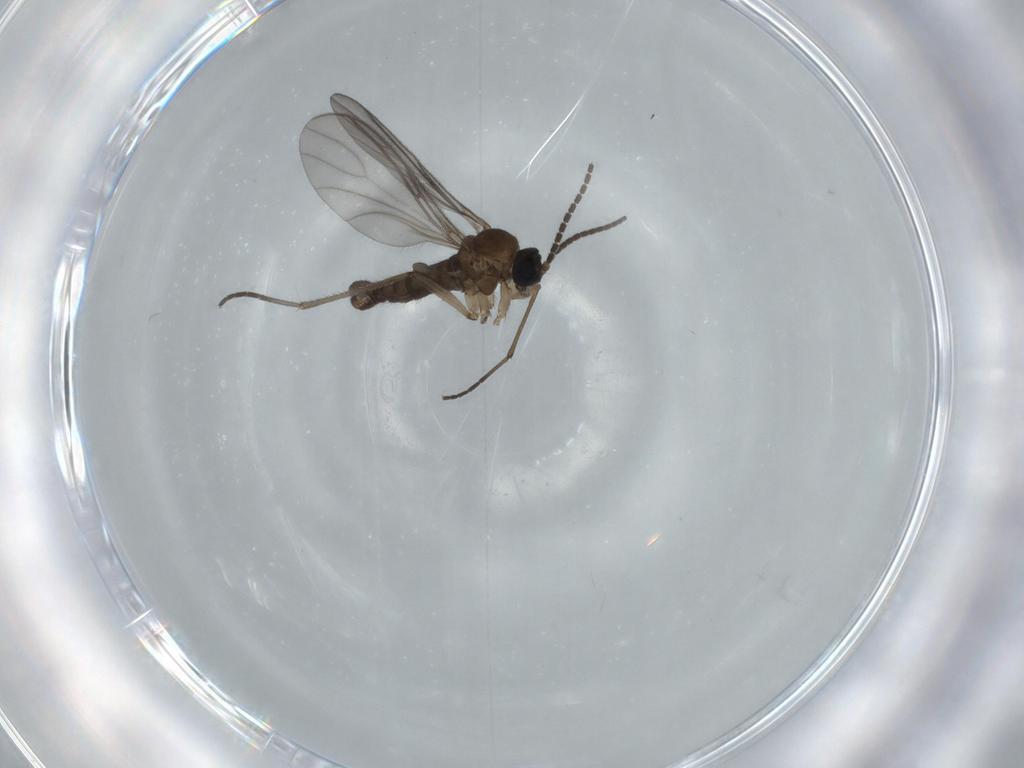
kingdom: Animalia
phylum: Arthropoda
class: Insecta
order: Diptera
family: Sciaridae
